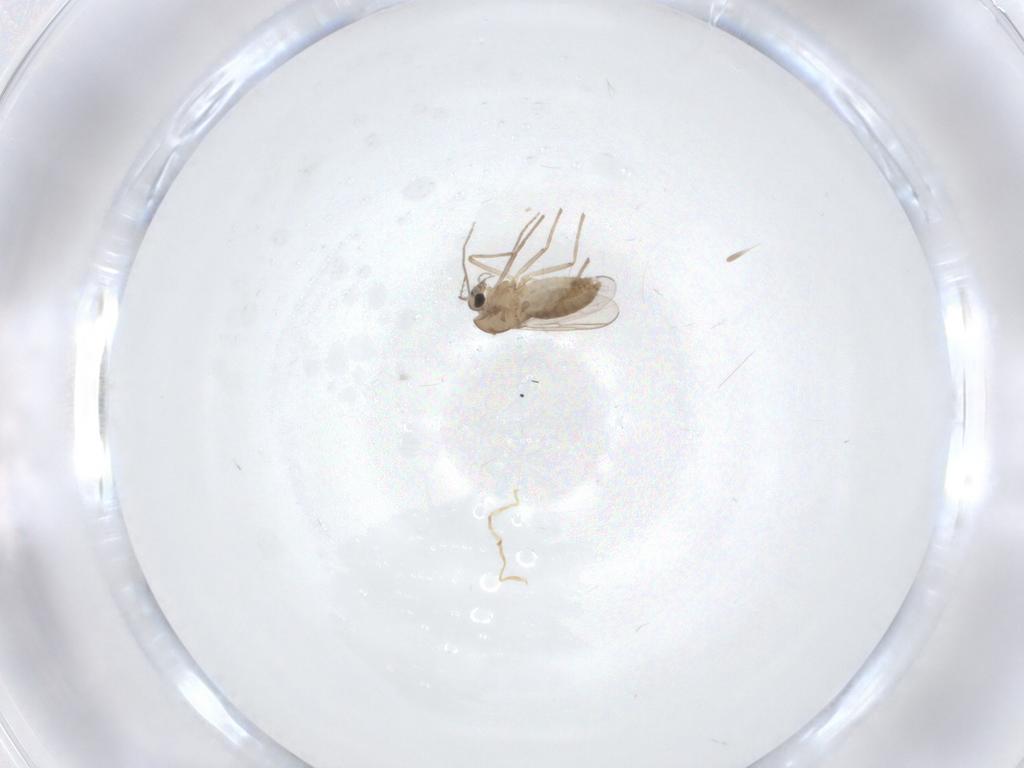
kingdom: Animalia
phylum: Arthropoda
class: Insecta
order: Diptera
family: Chironomidae
